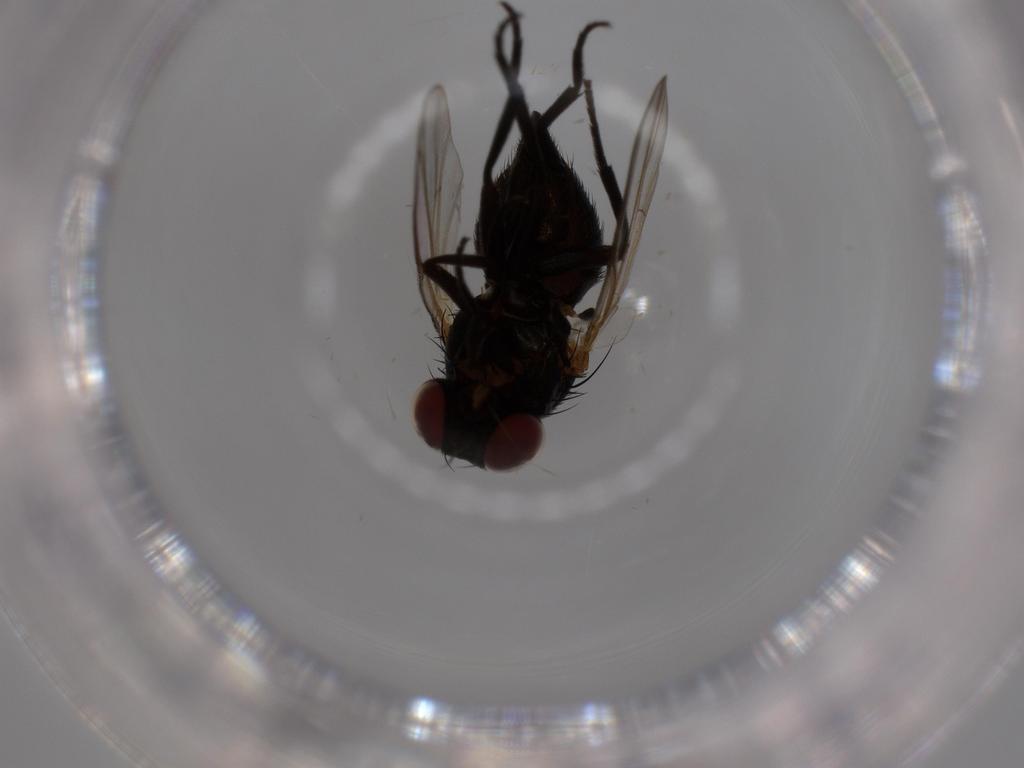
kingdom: Animalia
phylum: Arthropoda
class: Insecta
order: Diptera
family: Agromyzidae
